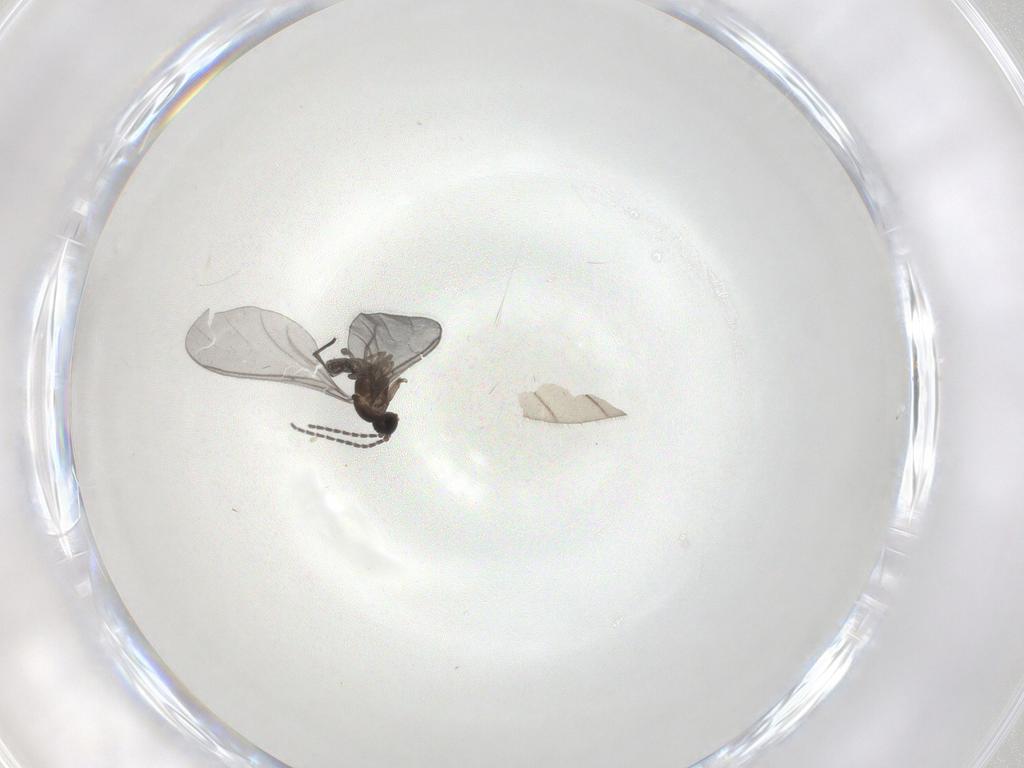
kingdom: Animalia
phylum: Arthropoda
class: Insecta
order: Diptera
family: Sciaridae
